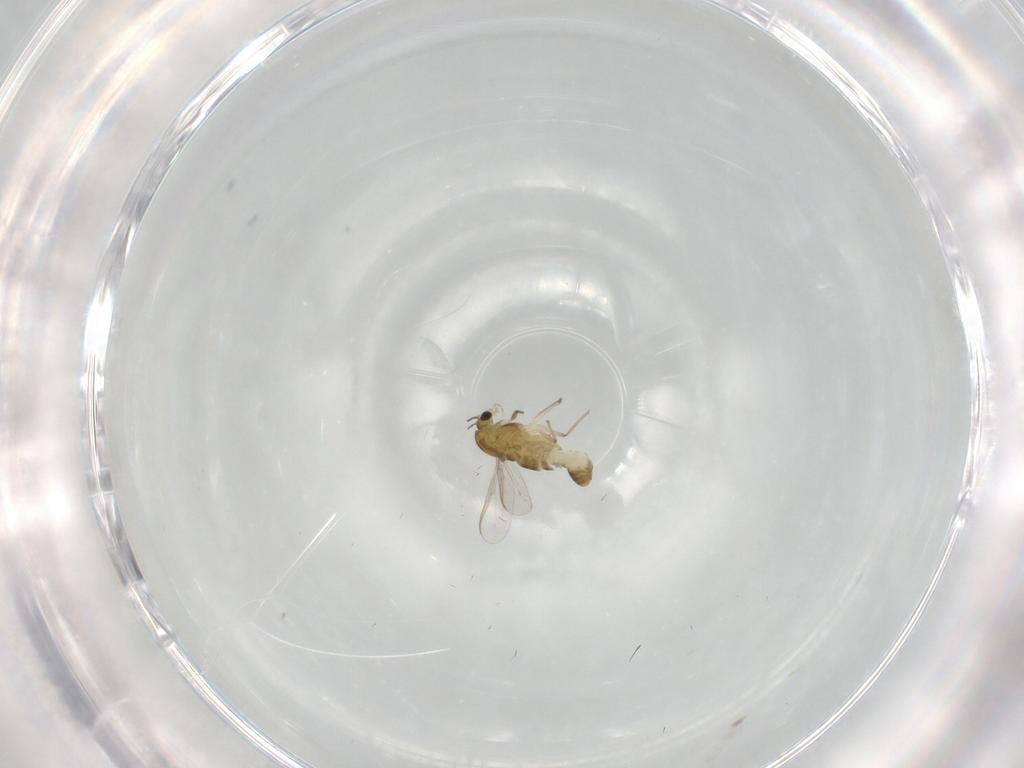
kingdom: Animalia
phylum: Arthropoda
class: Insecta
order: Diptera
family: Chironomidae
